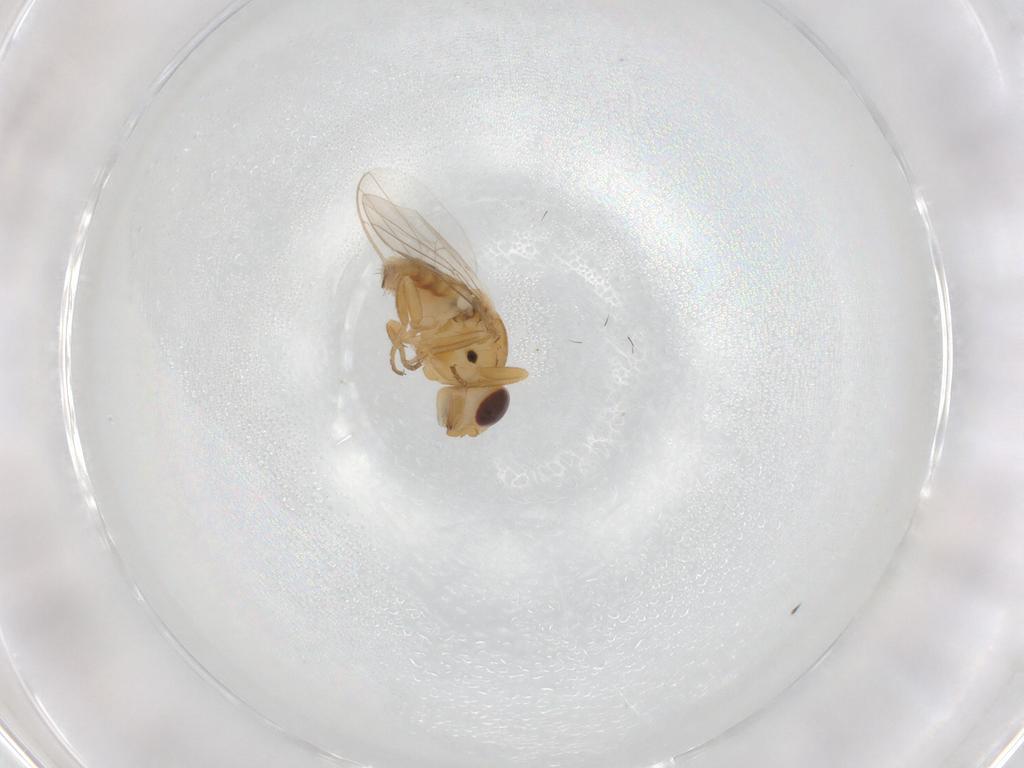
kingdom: Animalia
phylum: Arthropoda
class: Insecta
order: Diptera
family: Chloropidae
